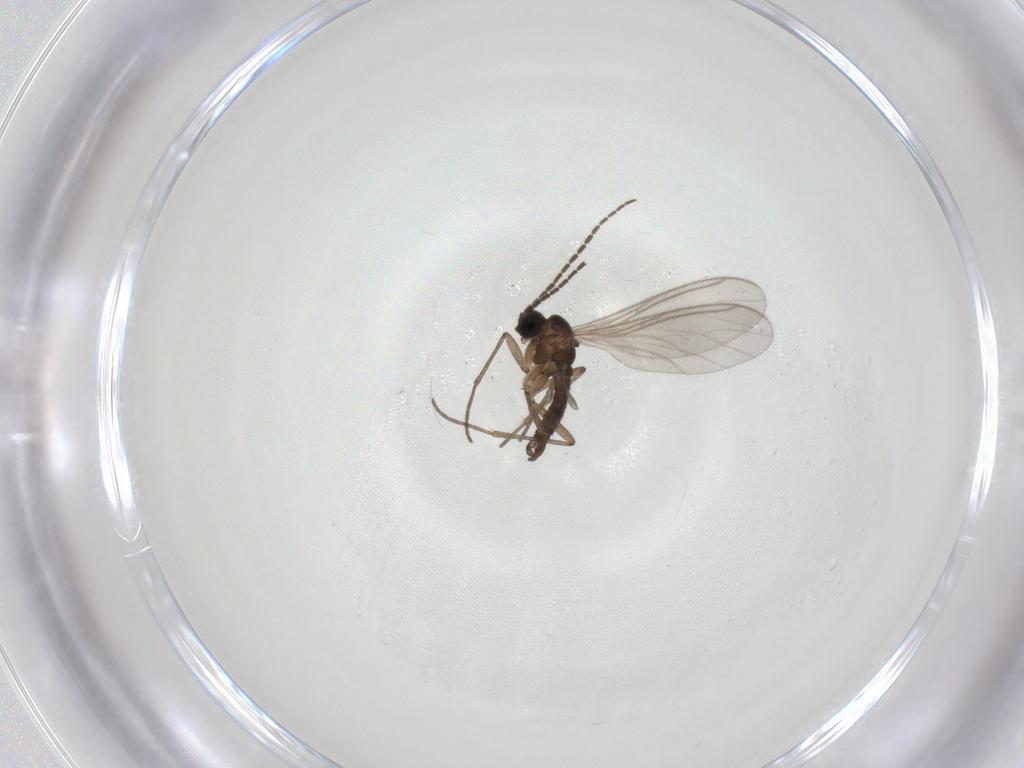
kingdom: Animalia
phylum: Arthropoda
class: Insecta
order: Diptera
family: Sciaridae
